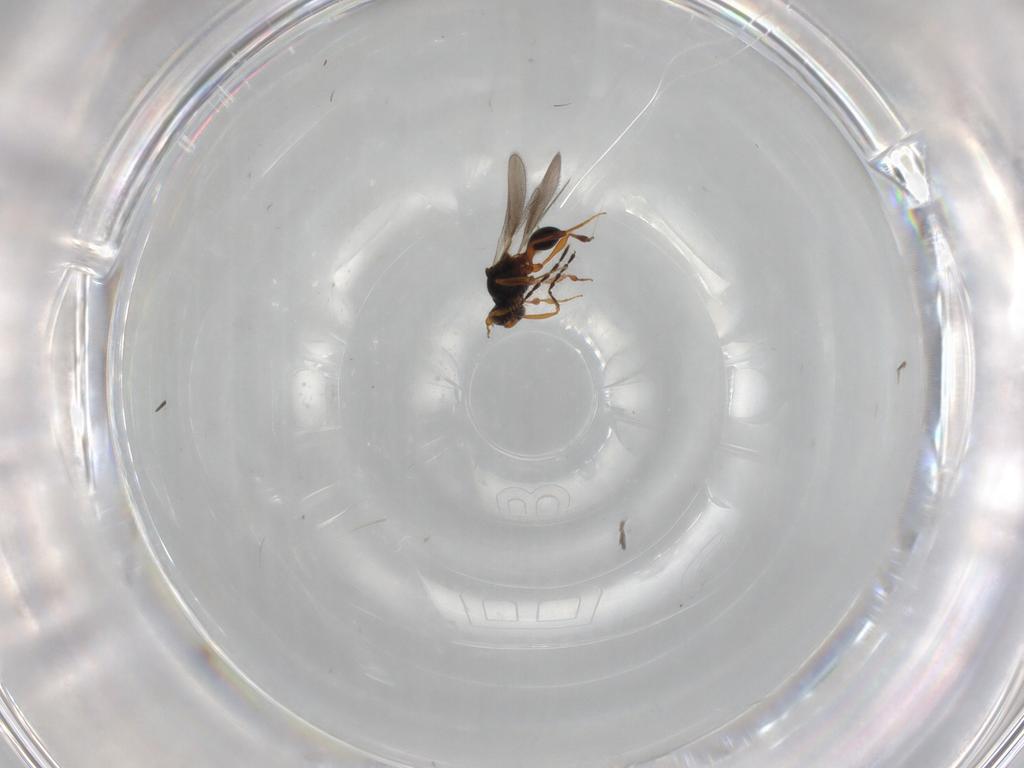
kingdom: Animalia
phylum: Arthropoda
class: Insecta
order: Hymenoptera
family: Platygastridae
